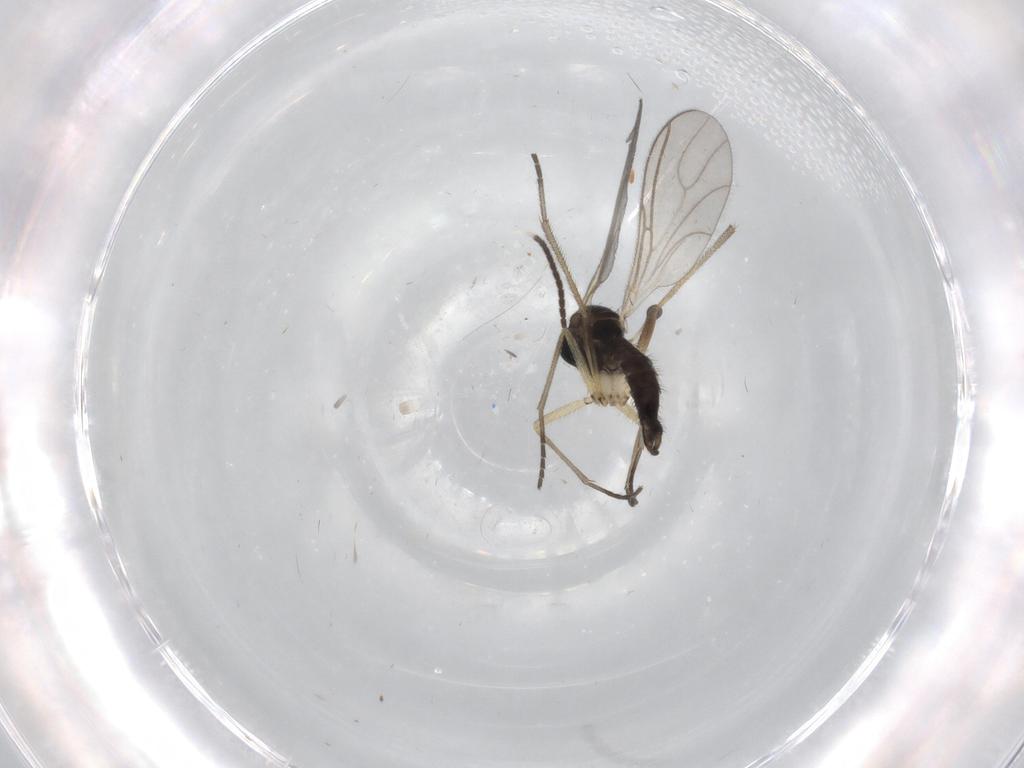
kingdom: Animalia
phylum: Arthropoda
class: Insecta
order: Diptera
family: Sciaridae
